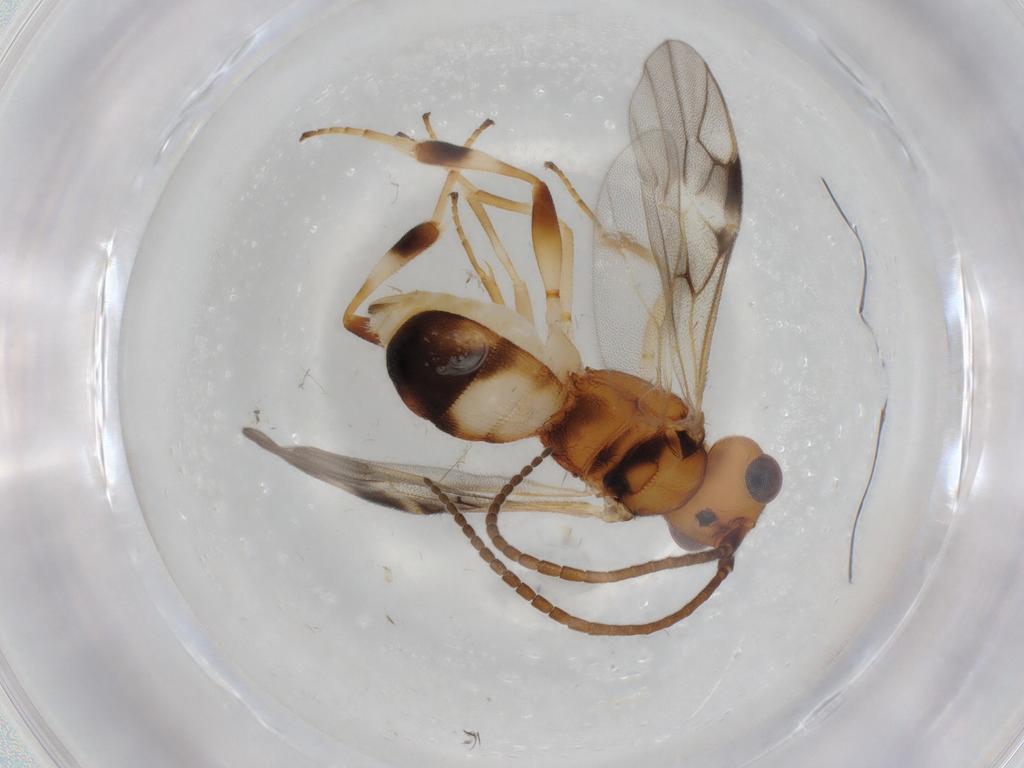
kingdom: Animalia
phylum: Arthropoda
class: Insecta
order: Hymenoptera
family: Braconidae
